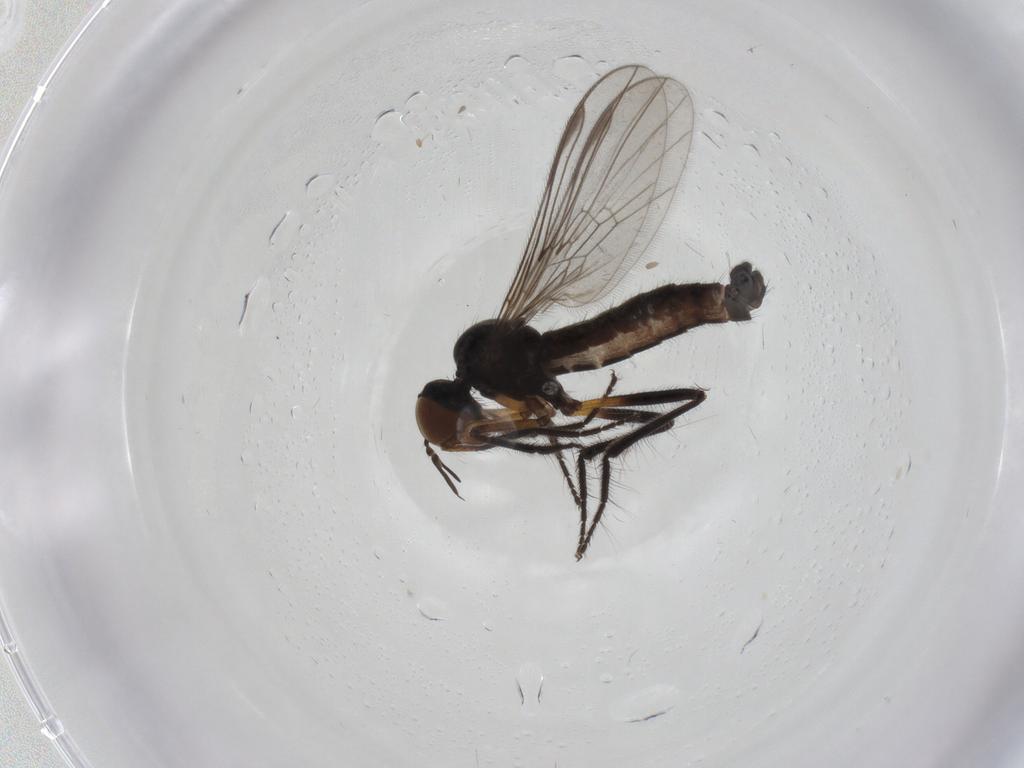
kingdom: Animalia
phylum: Arthropoda
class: Insecta
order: Diptera
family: Empididae
